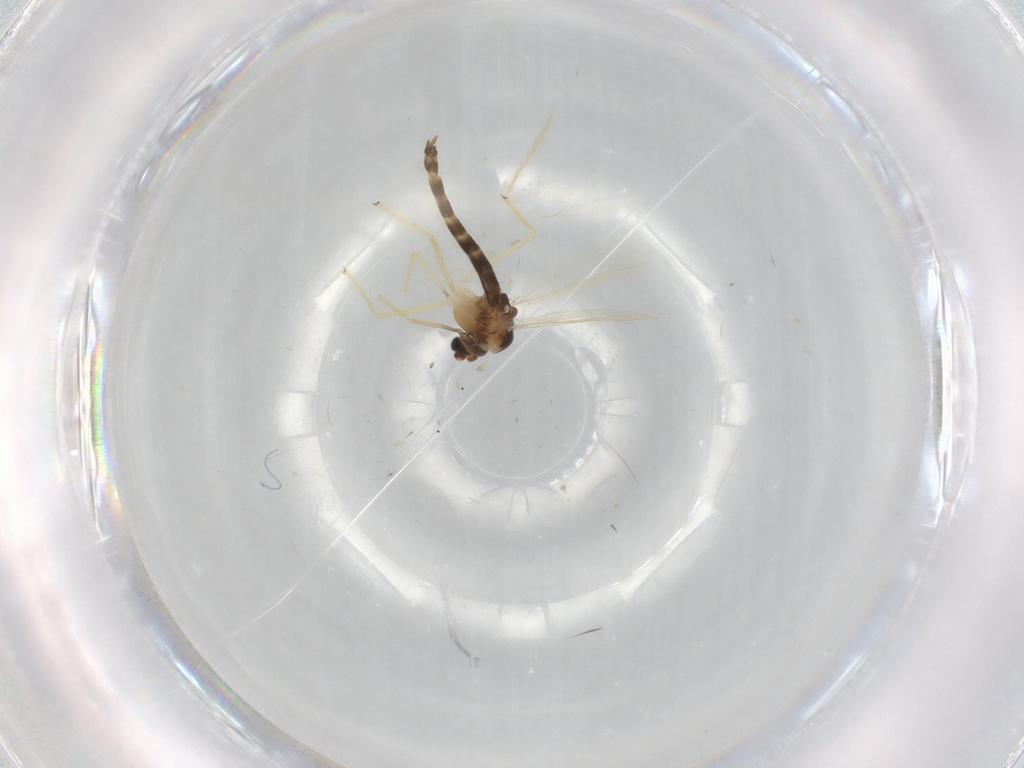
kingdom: Animalia
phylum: Arthropoda
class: Insecta
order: Diptera
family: Chironomidae
